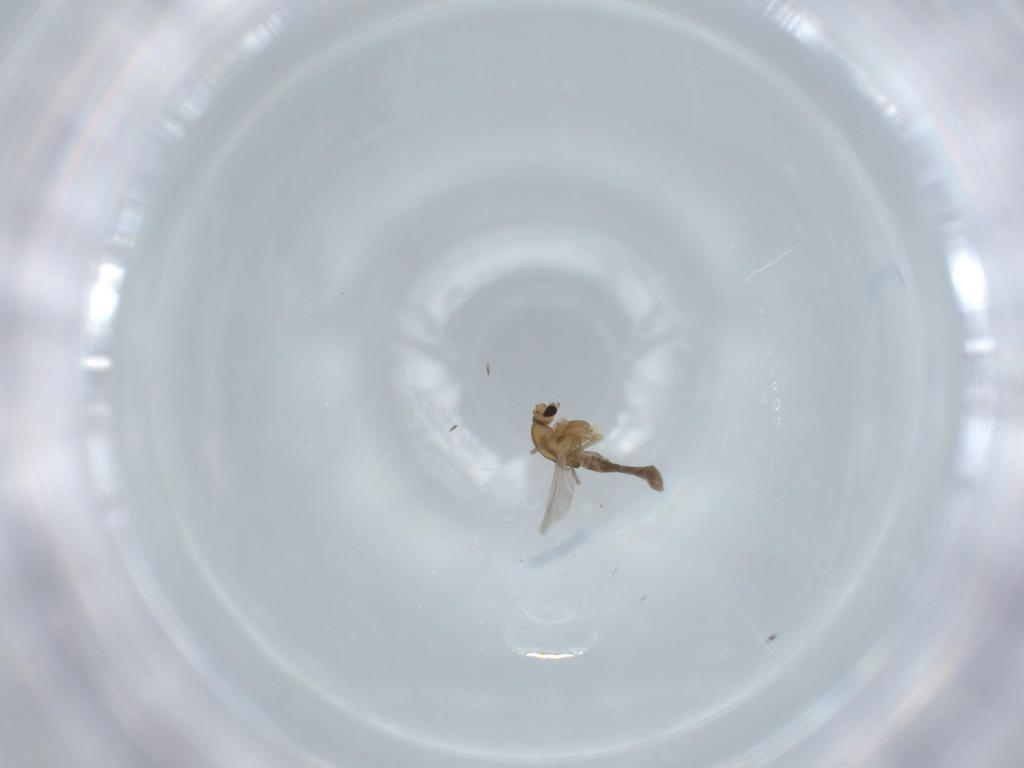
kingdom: Animalia
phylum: Arthropoda
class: Insecta
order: Diptera
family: Chironomidae
